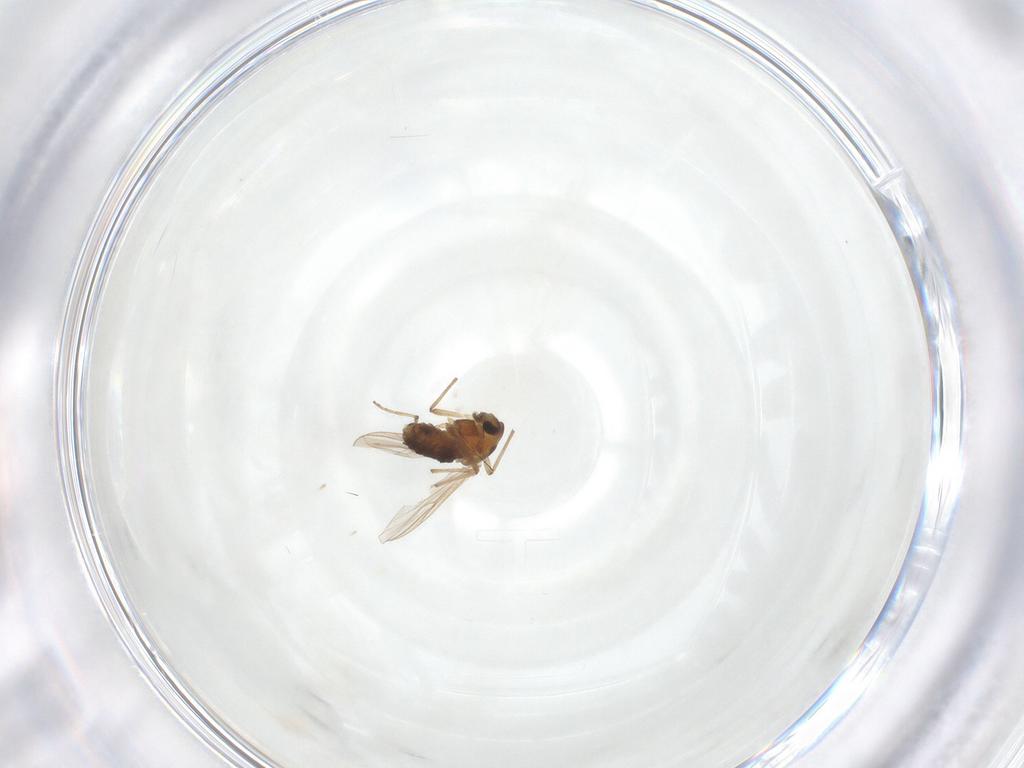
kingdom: Animalia
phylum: Arthropoda
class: Insecta
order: Diptera
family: Chironomidae
